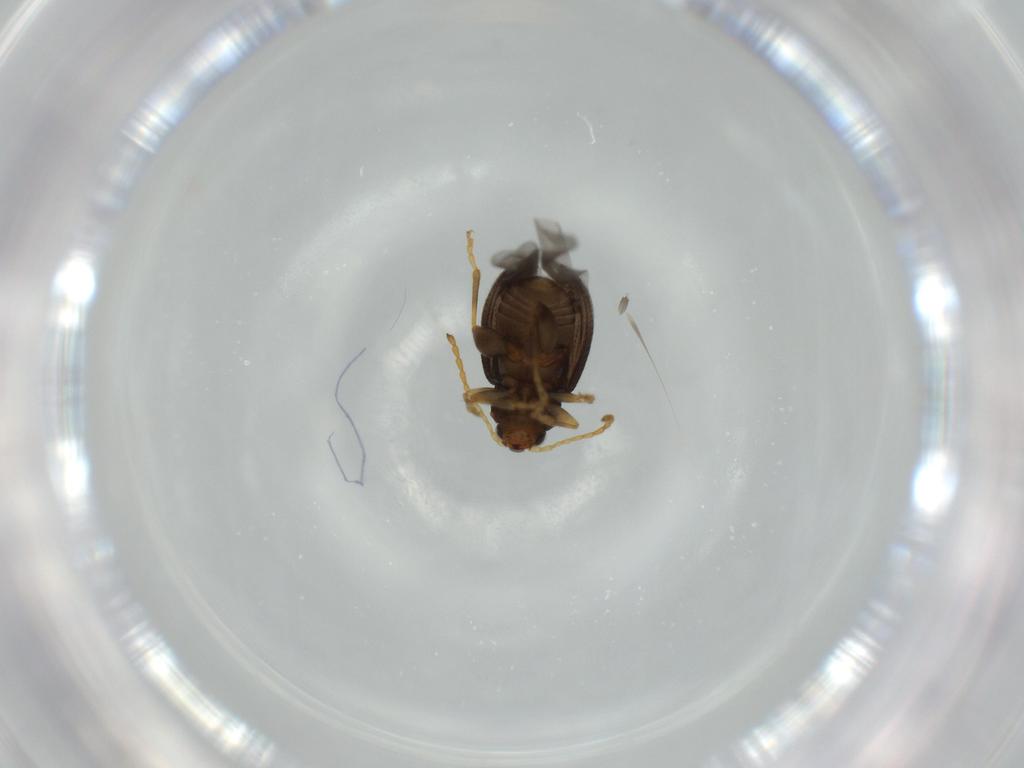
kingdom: Animalia
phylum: Arthropoda
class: Insecta
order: Coleoptera
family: Chrysomelidae
